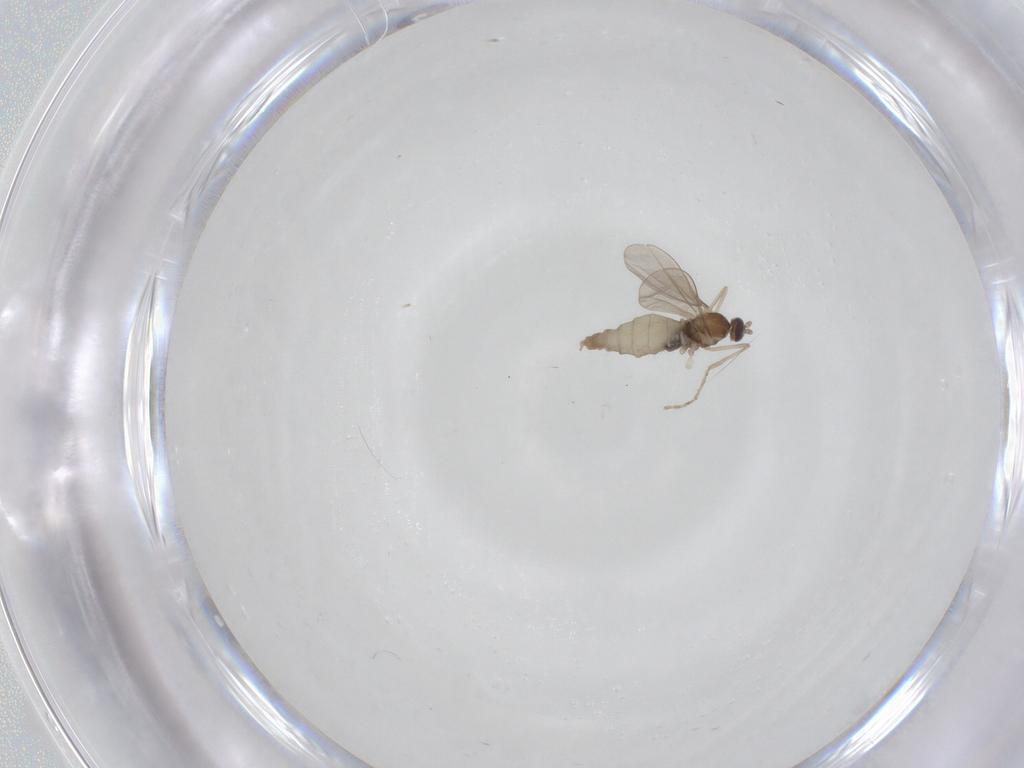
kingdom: Animalia
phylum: Arthropoda
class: Insecta
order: Diptera
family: Cecidomyiidae
